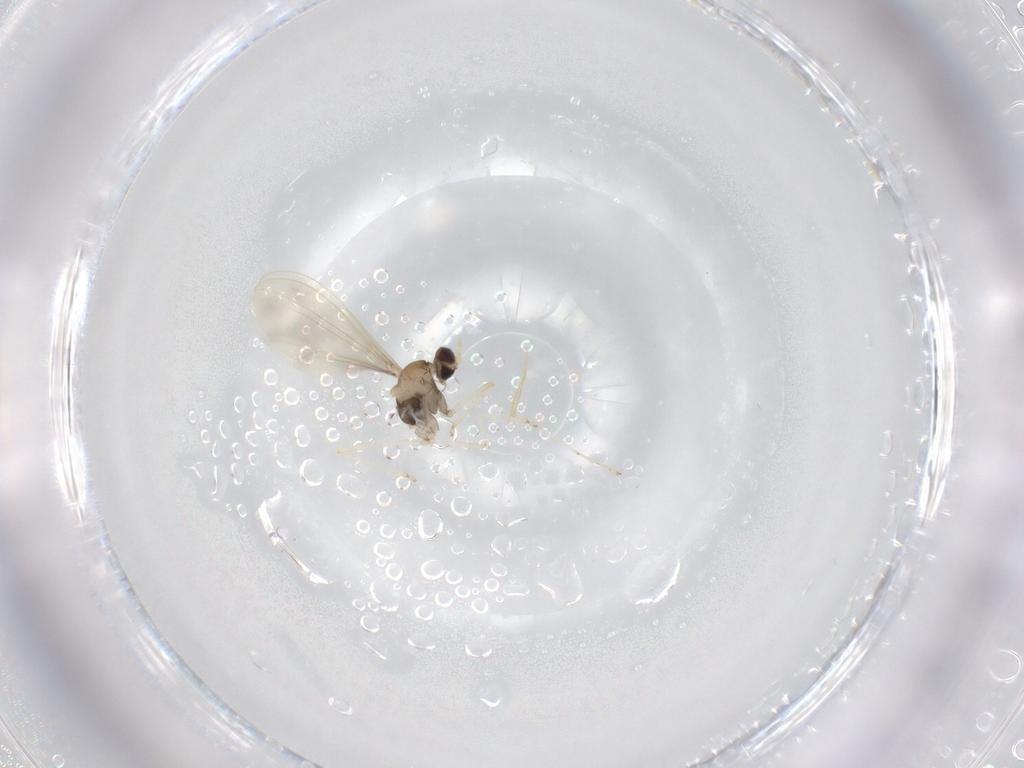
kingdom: Animalia
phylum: Arthropoda
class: Insecta
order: Diptera
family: Cecidomyiidae
